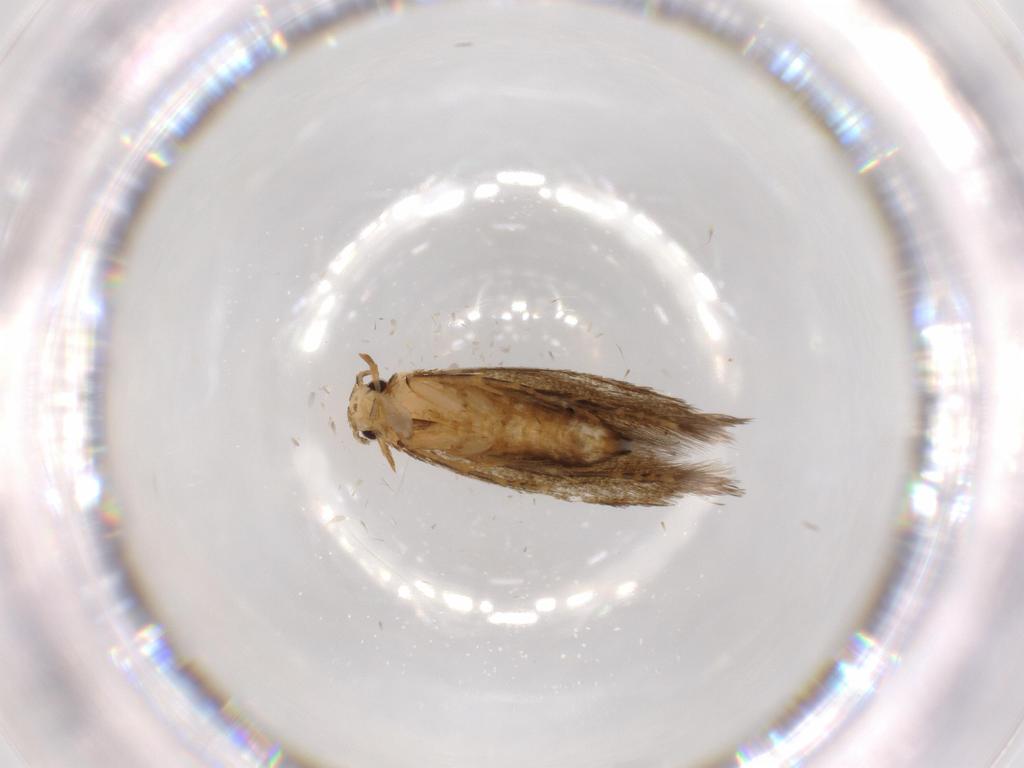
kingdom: Animalia
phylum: Arthropoda
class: Insecta
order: Lepidoptera
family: Tineidae
